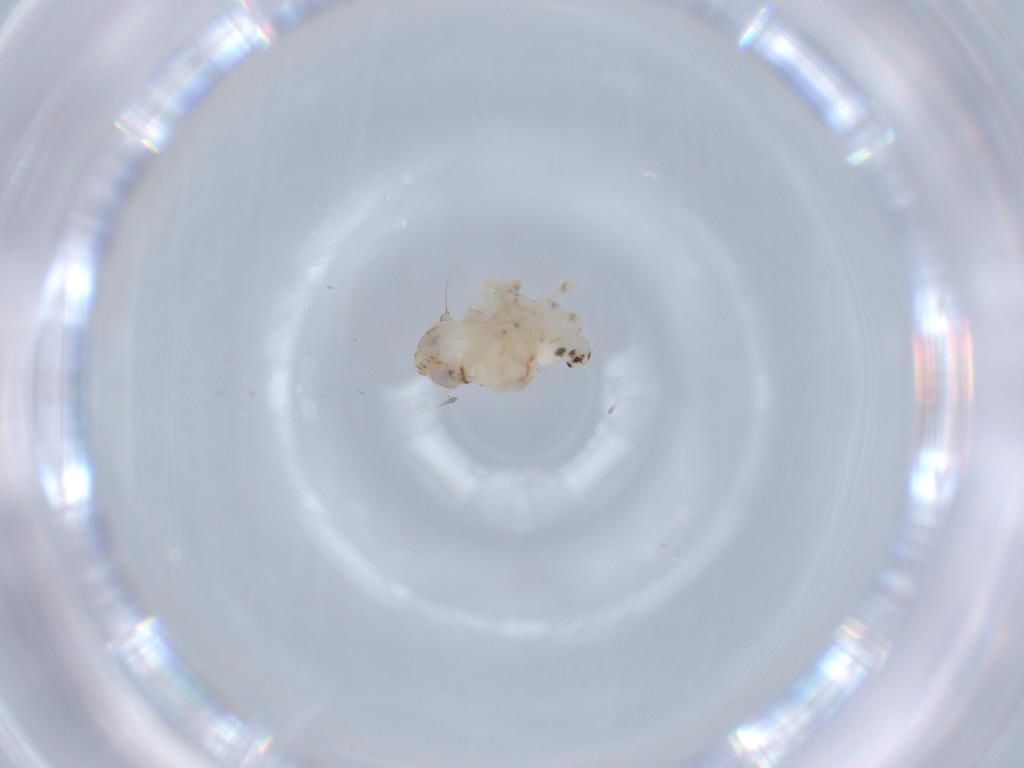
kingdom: Animalia
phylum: Arthropoda
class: Insecta
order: Hemiptera
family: Nogodinidae
